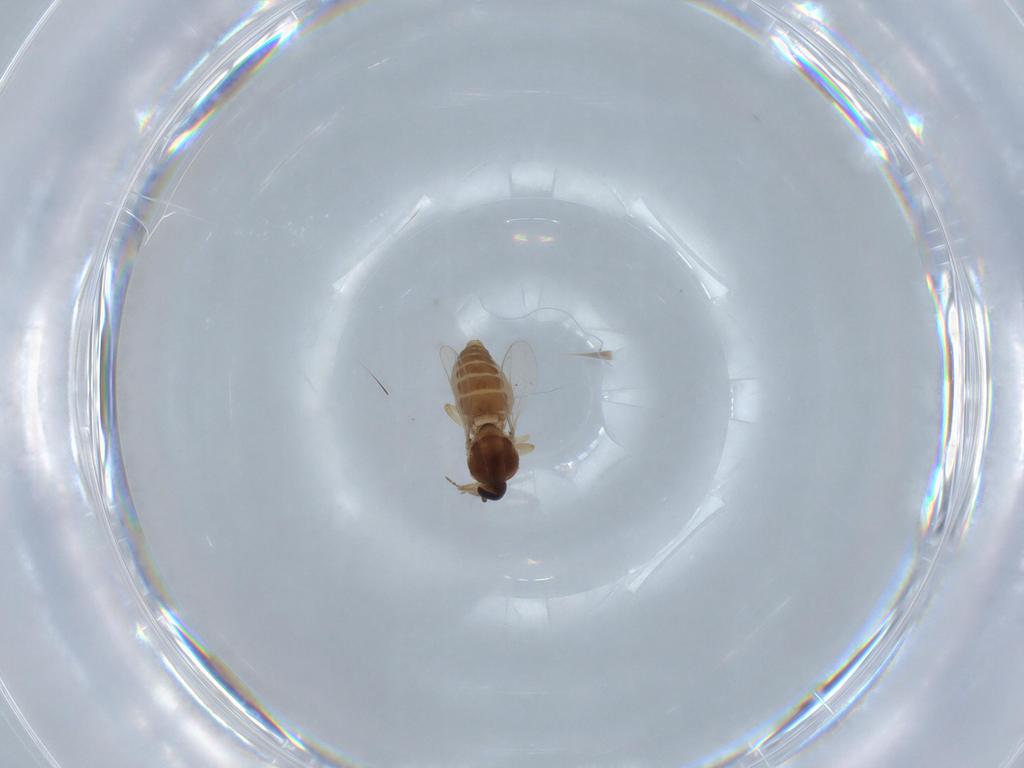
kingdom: Animalia
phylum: Arthropoda
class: Insecta
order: Diptera
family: Ceratopogonidae
